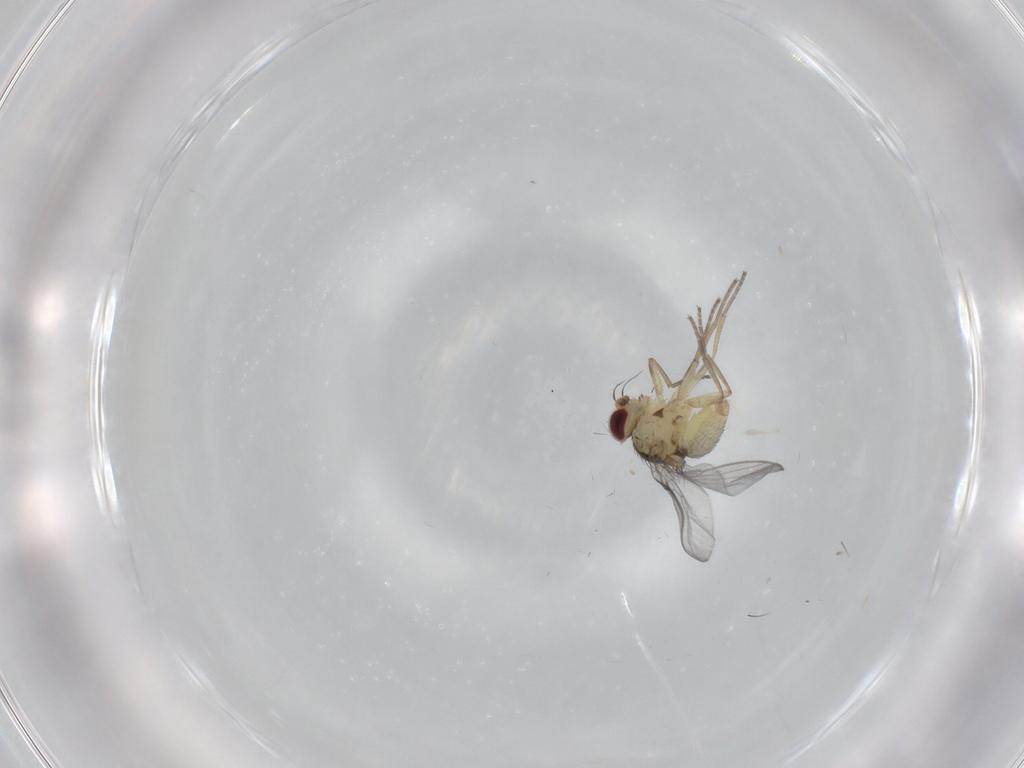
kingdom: Animalia
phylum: Arthropoda
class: Insecta
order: Diptera
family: Agromyzidae
